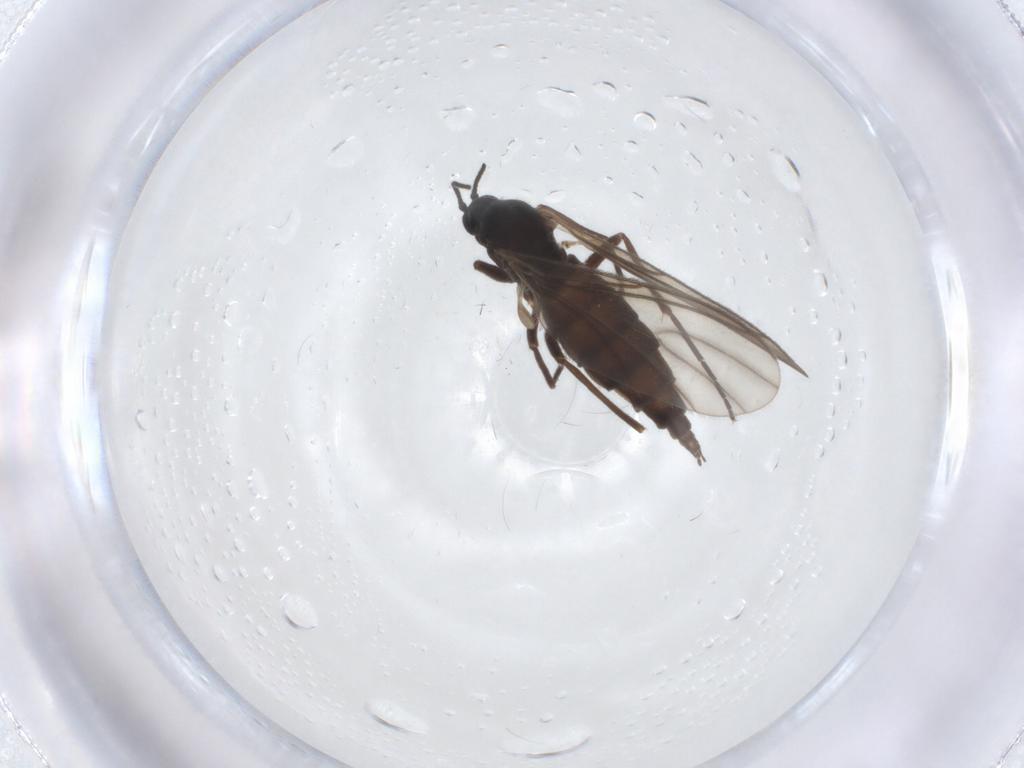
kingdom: Animalia
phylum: Arthropoda
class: Insecta
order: Diptera
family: Sciaridae
